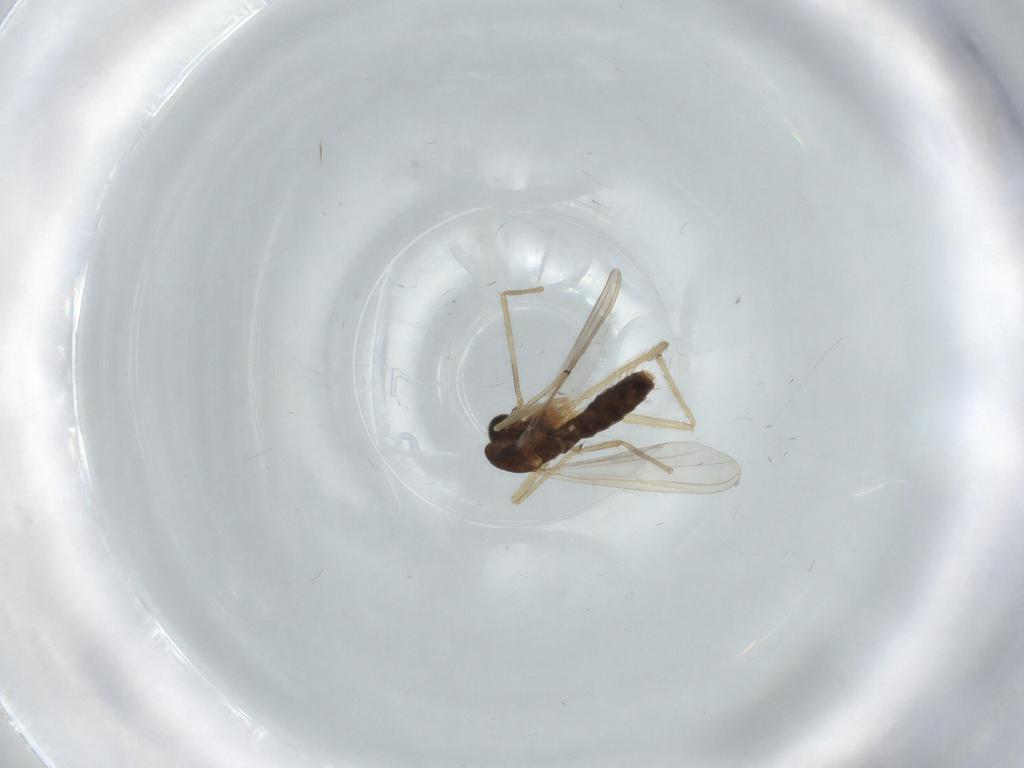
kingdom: Animalia
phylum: Arthropoda
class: Insecta
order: Diptera
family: Chironomidae
